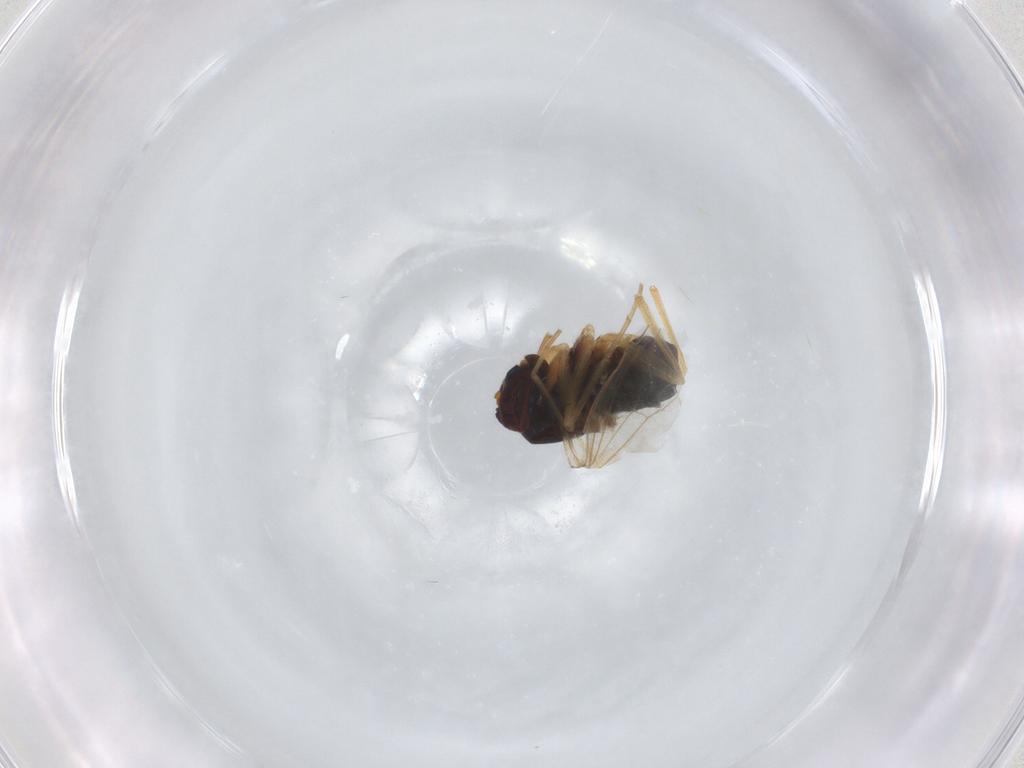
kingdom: Animalia
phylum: Arthropoda
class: Insecta
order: Diptera
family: Dolichopodidae
